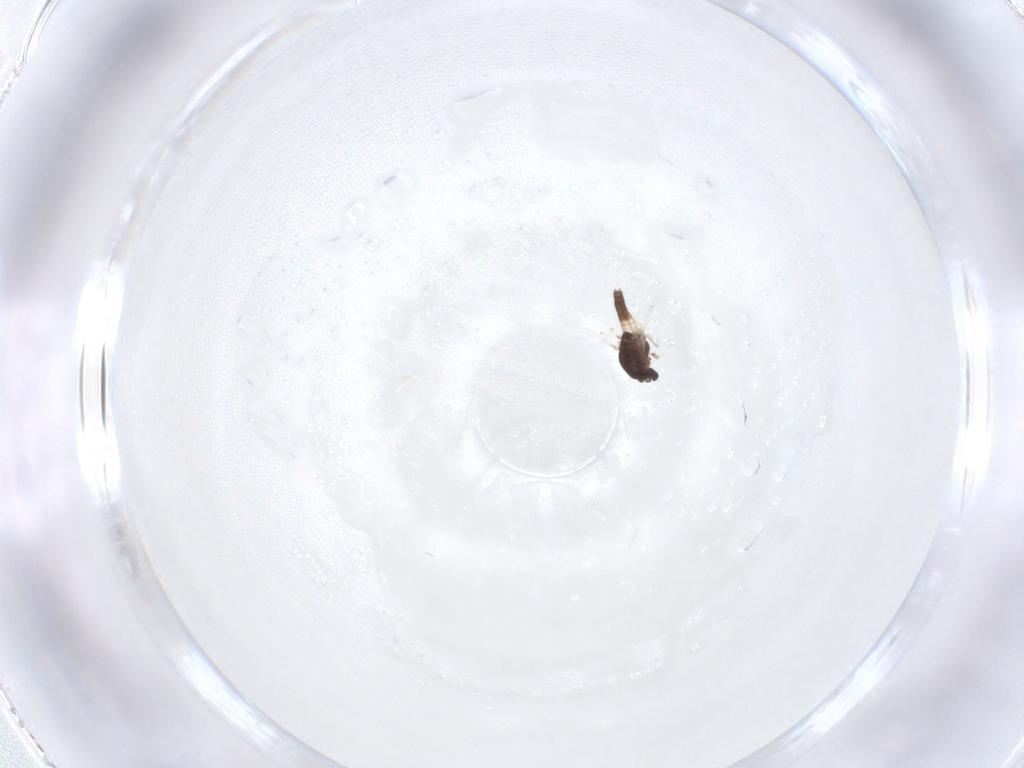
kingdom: Animalia
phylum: Arthropoda
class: Insecta
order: Diptera
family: Chironomidae
